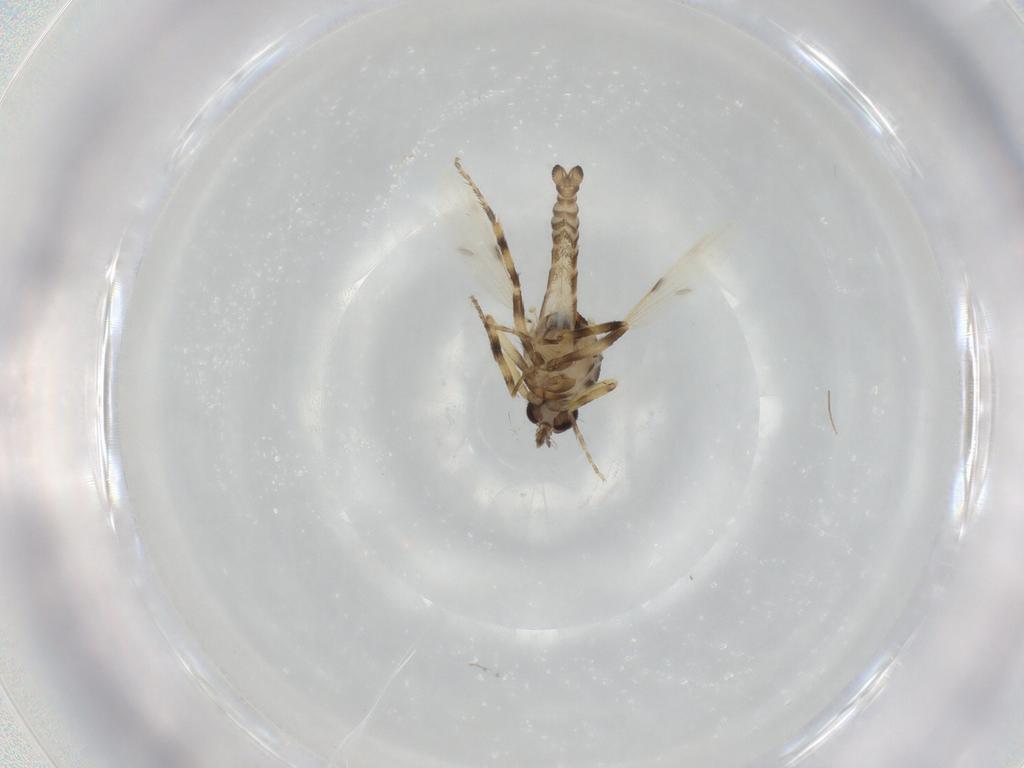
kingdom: Animalia
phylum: Arthropoda
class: Insecta
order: Diptera
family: Ceratopogonidae
